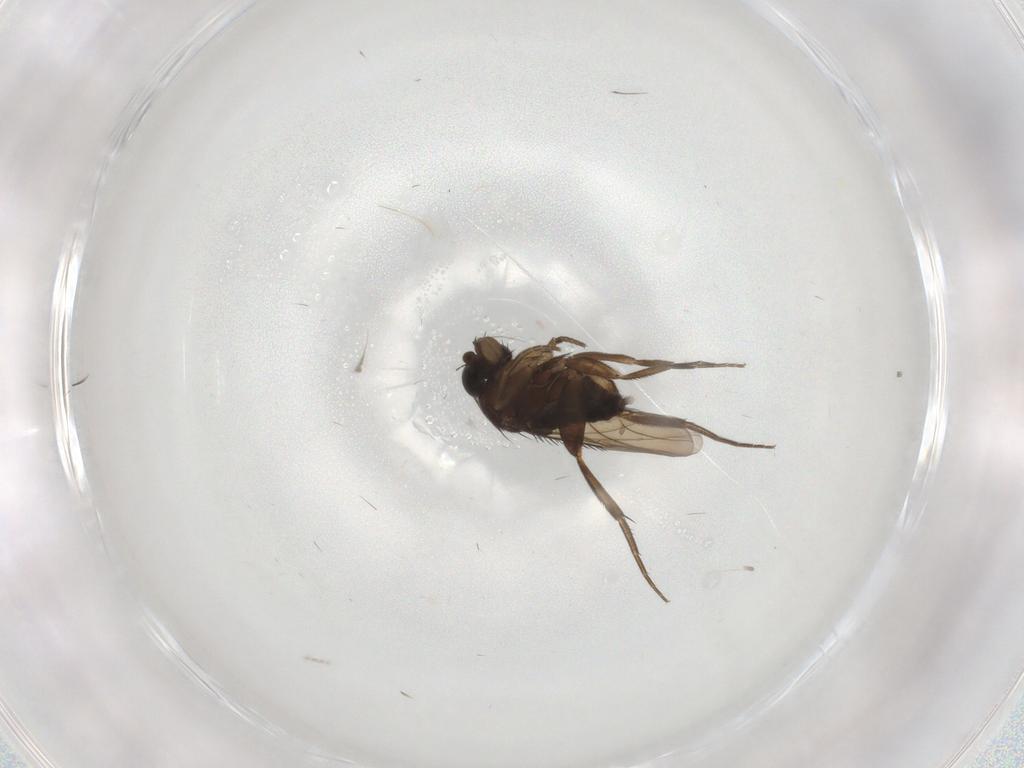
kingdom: Animalia
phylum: Arthropoda
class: Insecta
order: Diptera
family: Phoridae
